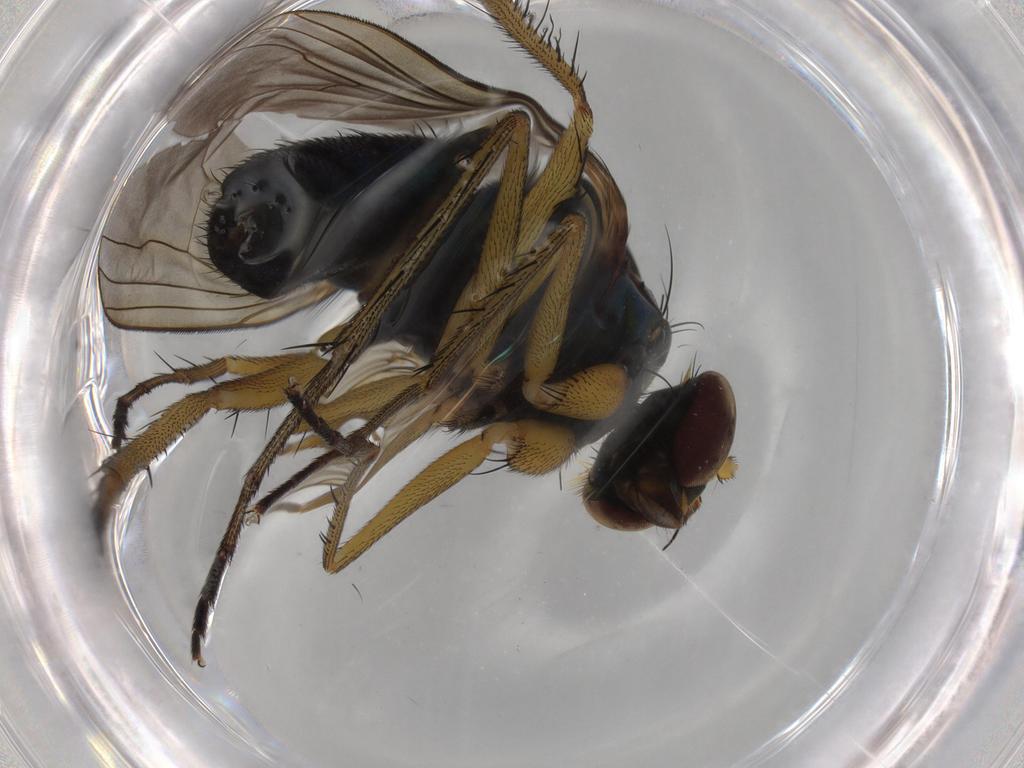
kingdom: Animalia
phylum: Arthropoda
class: Insecta
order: Diptera
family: Dolichopodidae
